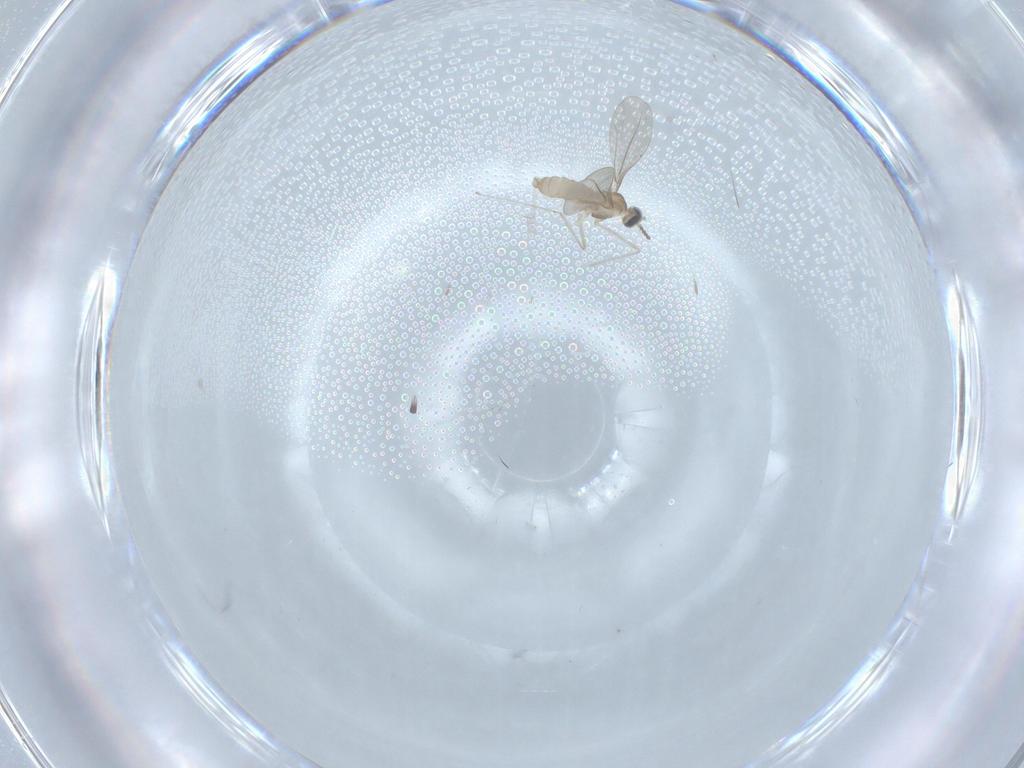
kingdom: Animalia
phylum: Arthropoda
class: Insecta
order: Diptera
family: Cecidomyiidae
